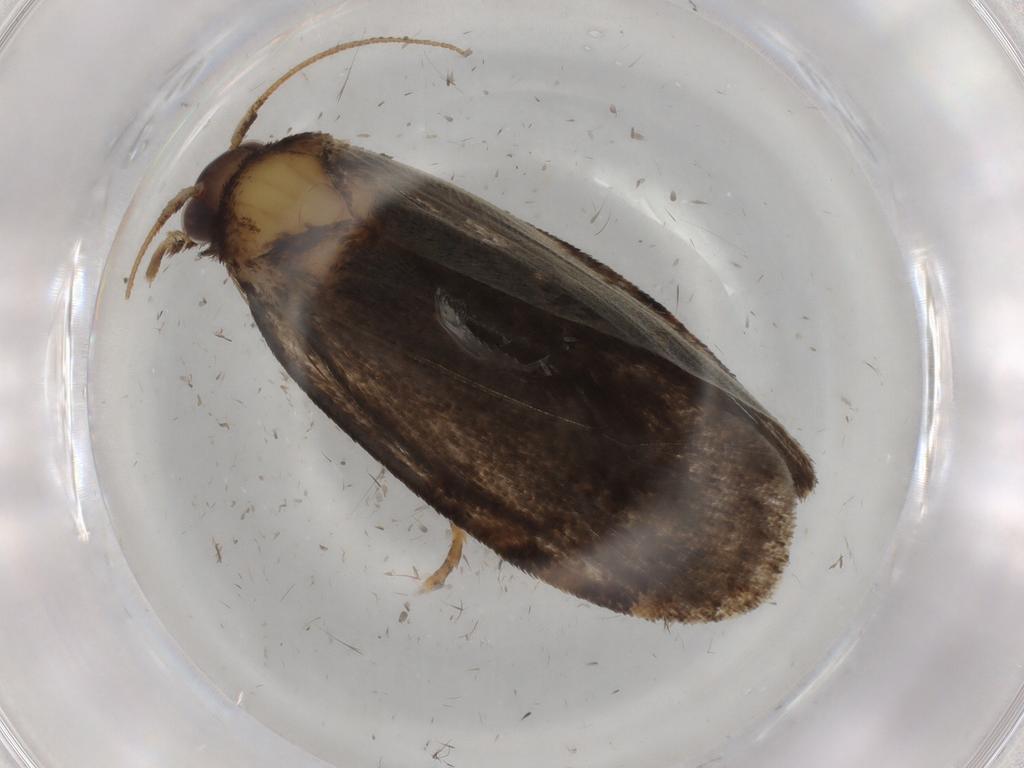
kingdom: Animalia
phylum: Arthropoda
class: Insecta
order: Lepidoptera
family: Tineidae
